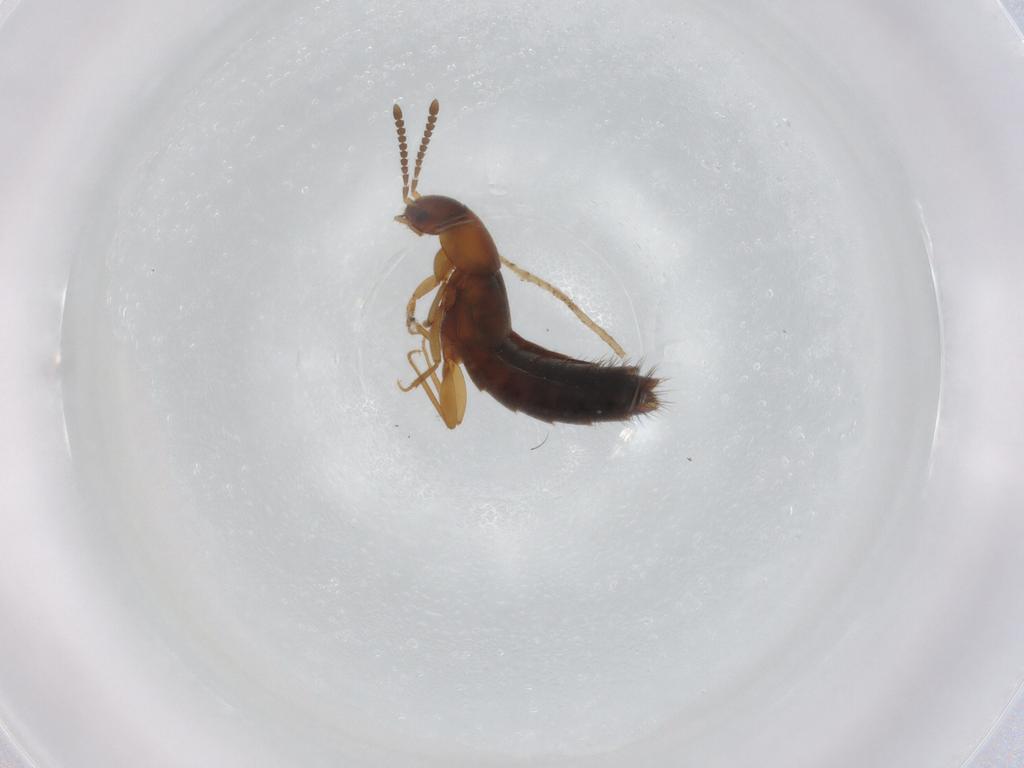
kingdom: Animalia
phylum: Arthropoda
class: Insecta
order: Coleoptera
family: Staphylinidae
